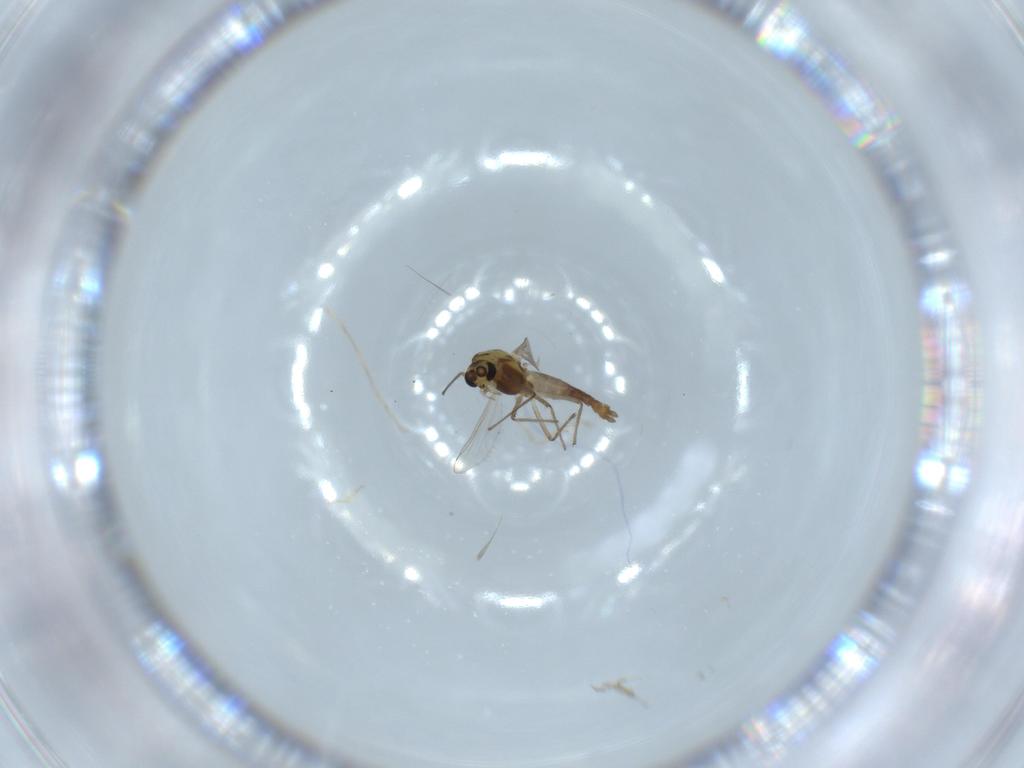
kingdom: Animalia
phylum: Arthropoda
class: Insecta
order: Diptera
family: Chironomidae
